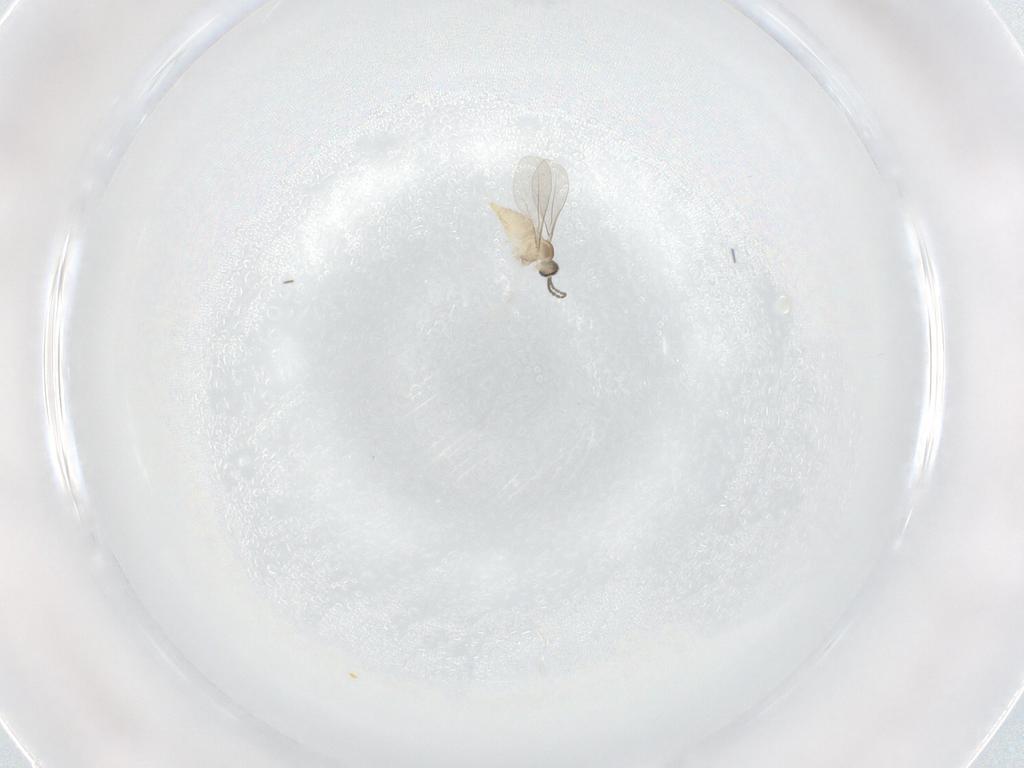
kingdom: Animalia
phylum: Arthropoda
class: Insecta
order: Diptera
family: Cecidomyiidae
